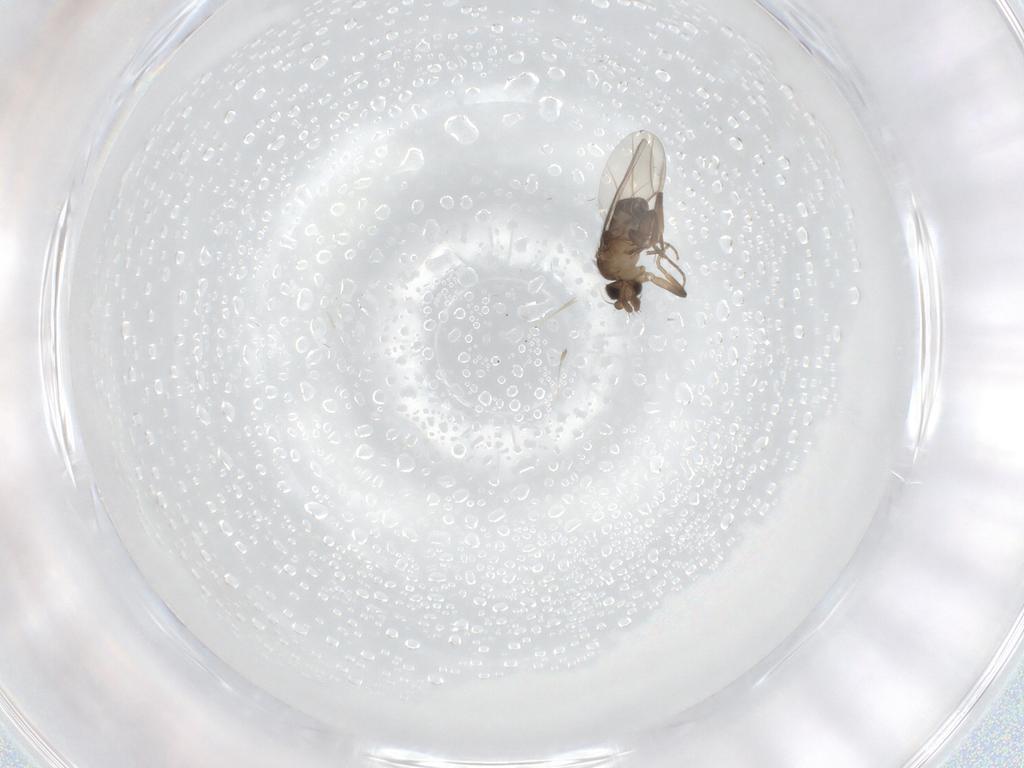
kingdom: Animalia
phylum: Arthropoda
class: Insecta
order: Diptera
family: Phoridae
